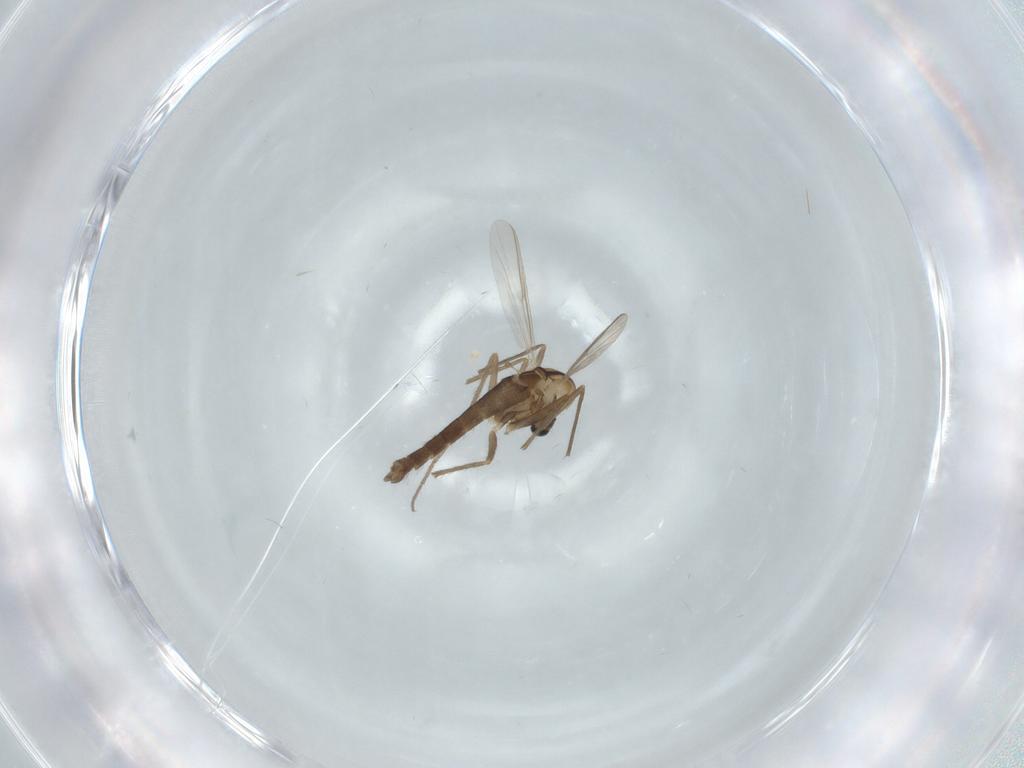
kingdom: Animalia
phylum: Arthropoda
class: Insecta
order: Diptera
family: Chironomidae
